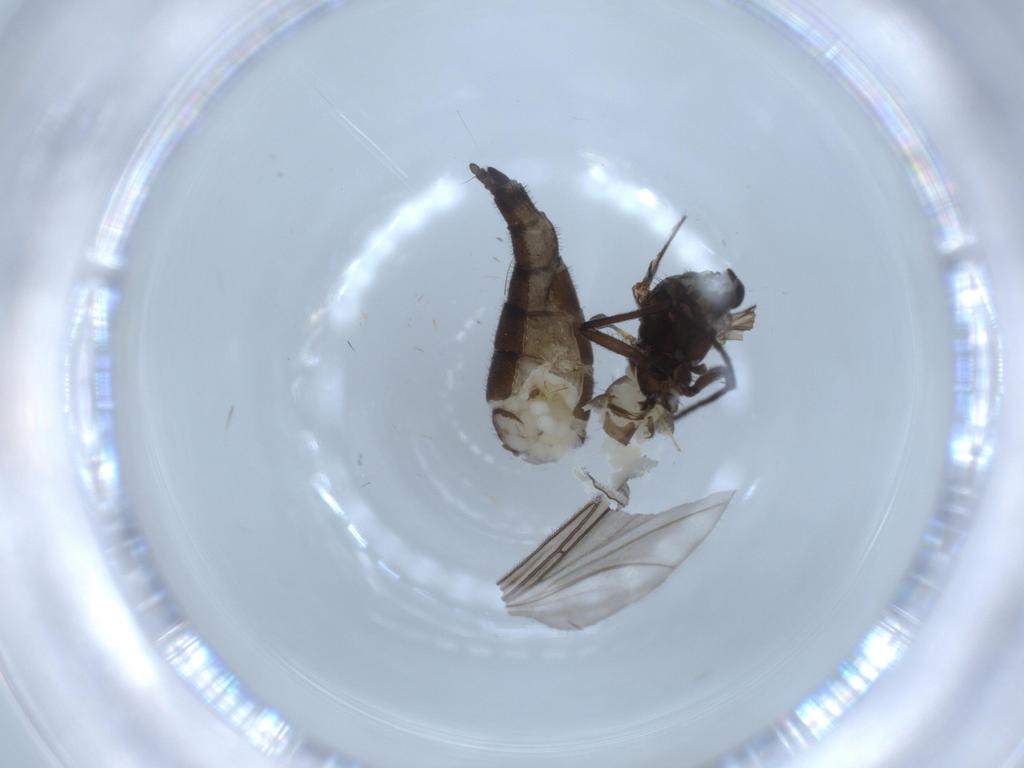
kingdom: Animalia
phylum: Arthropoda
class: Insecta
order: Diptera
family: Sciaridae
